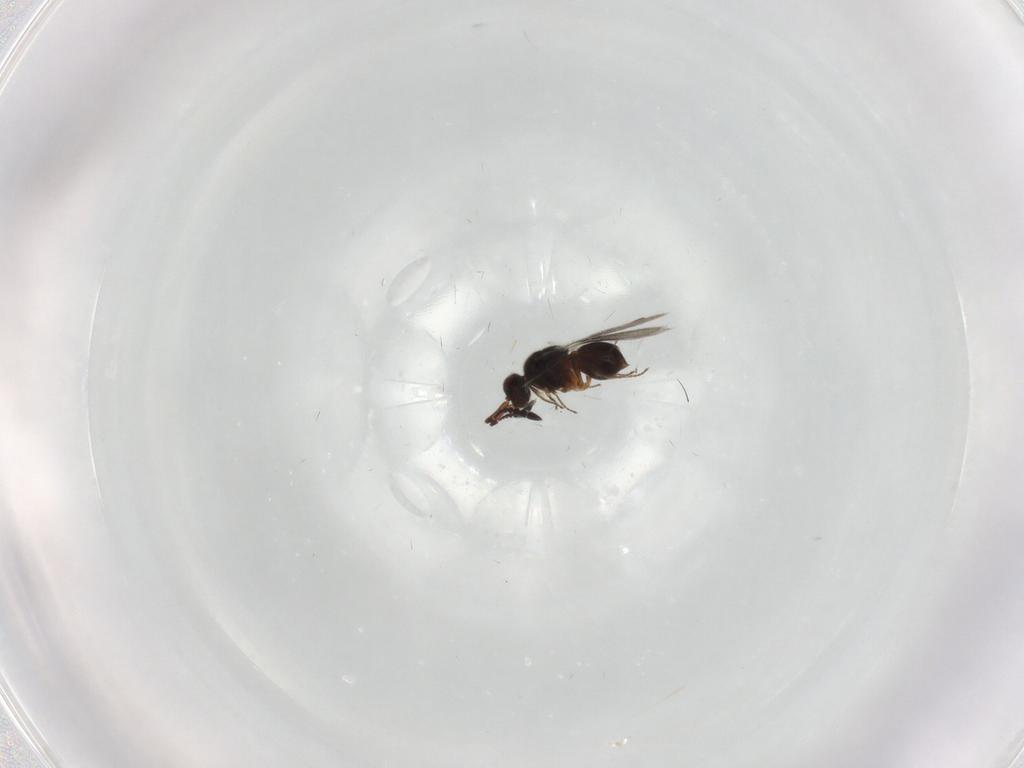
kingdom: Animalia
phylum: Arthropoda
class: Insecta
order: Hymenoptera
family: Ceraphronidae
